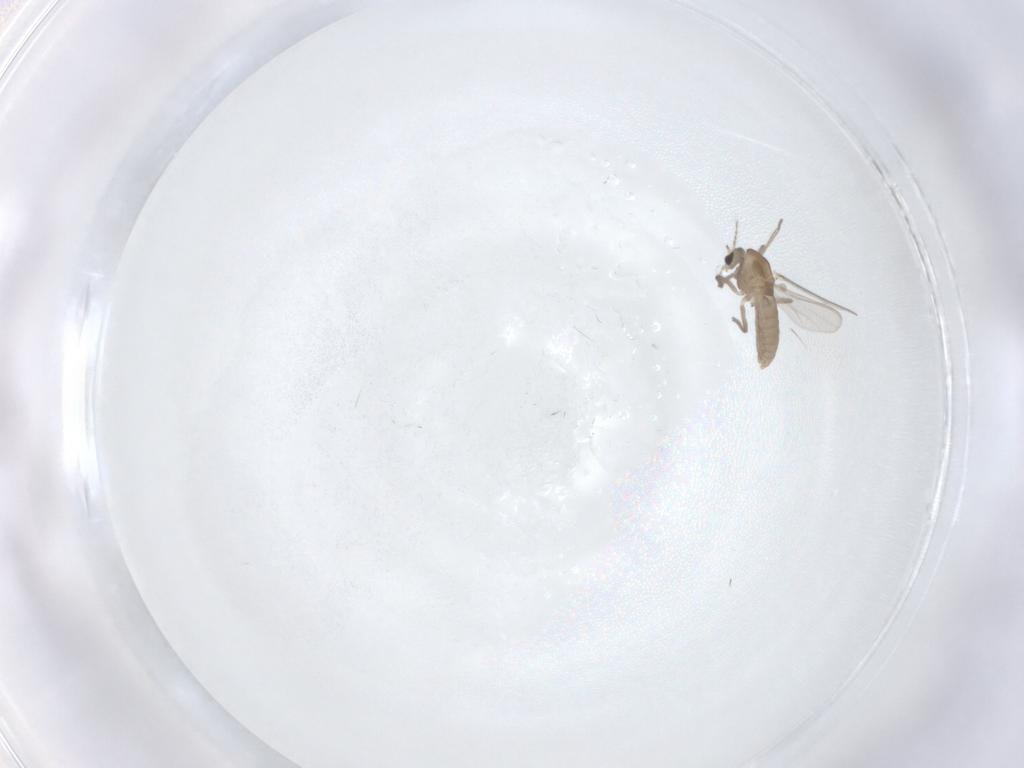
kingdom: Animalia
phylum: Arthropoda
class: Insecta
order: Diptera
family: Chironomidae
